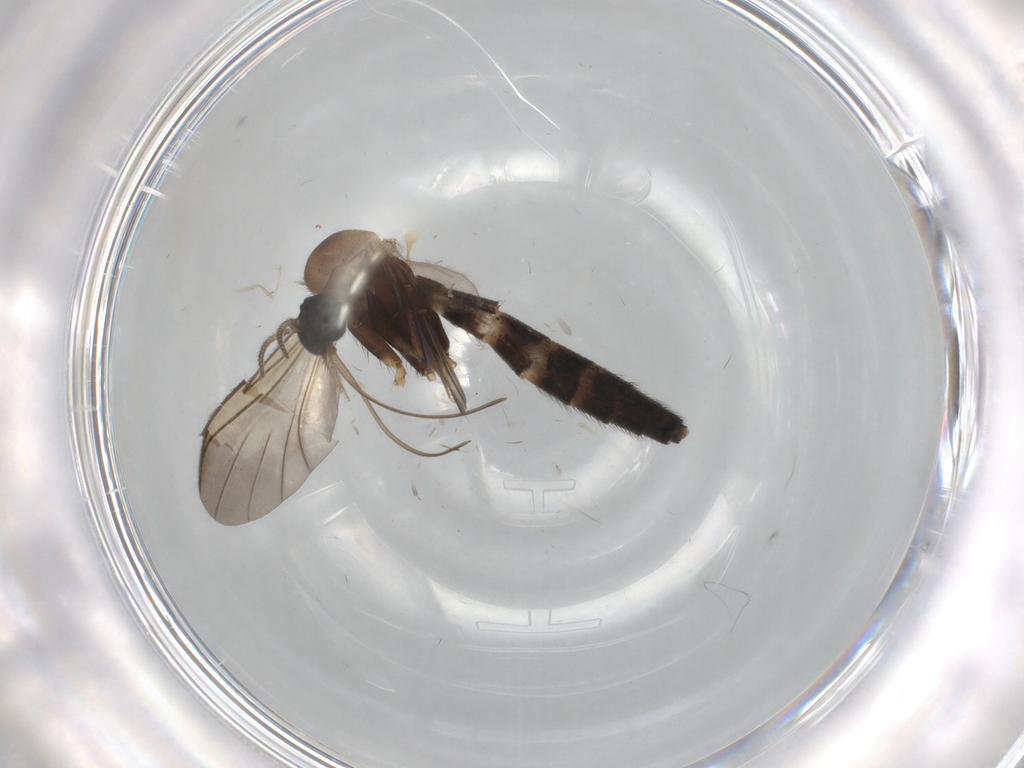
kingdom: Animalia
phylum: Arthropoda
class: Insecta
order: Diptera
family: Keroplatidae
